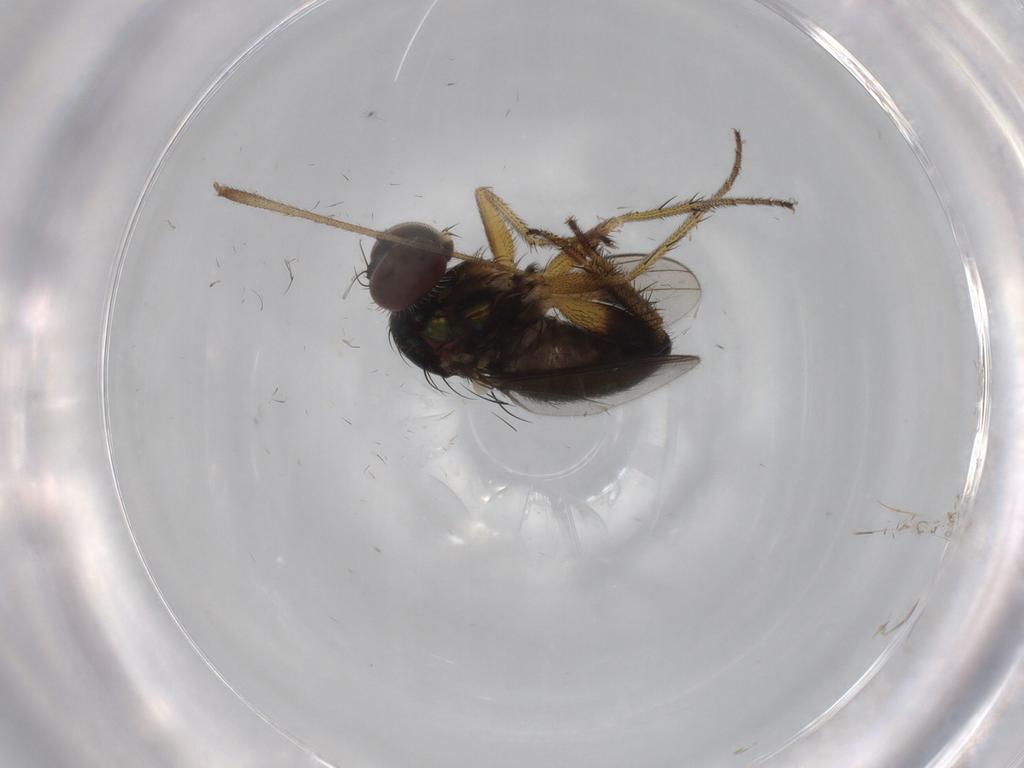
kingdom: Animalia
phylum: Arthropoda
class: Insecta
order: Diptera
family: Dolichopodidae
